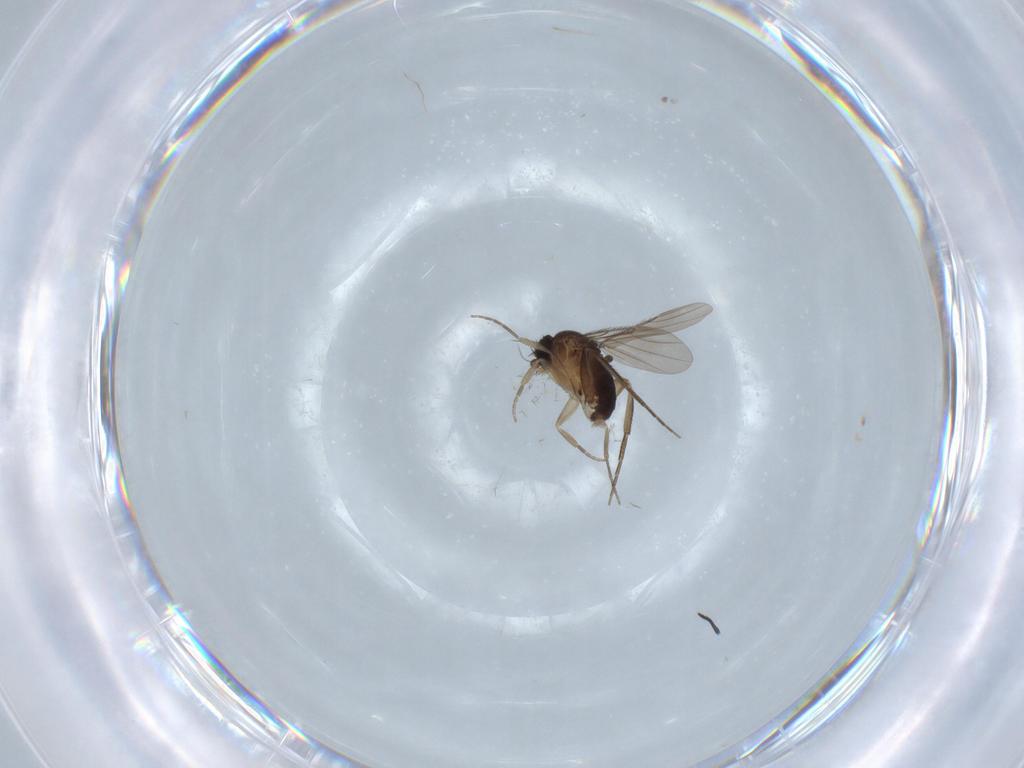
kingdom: Animalia
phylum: Arthropoda
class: Insecta
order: Diptera
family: Phoridae
